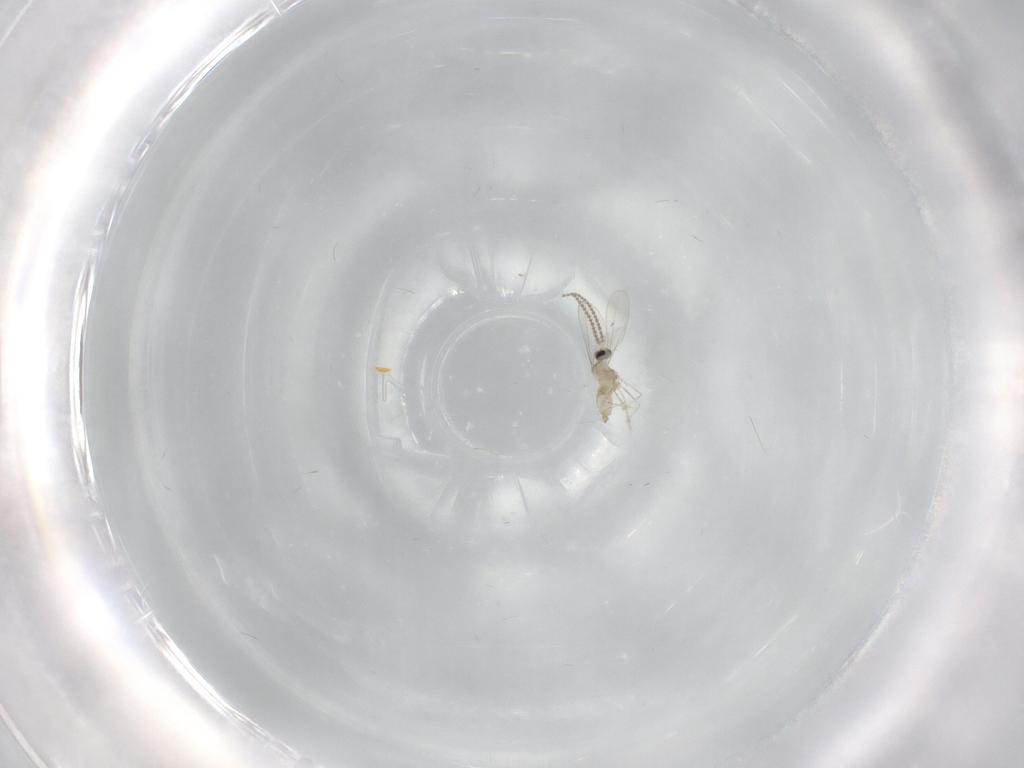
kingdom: Animalia
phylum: Arthropoda
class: Insecta
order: Diptera
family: Cecidomyiidae
